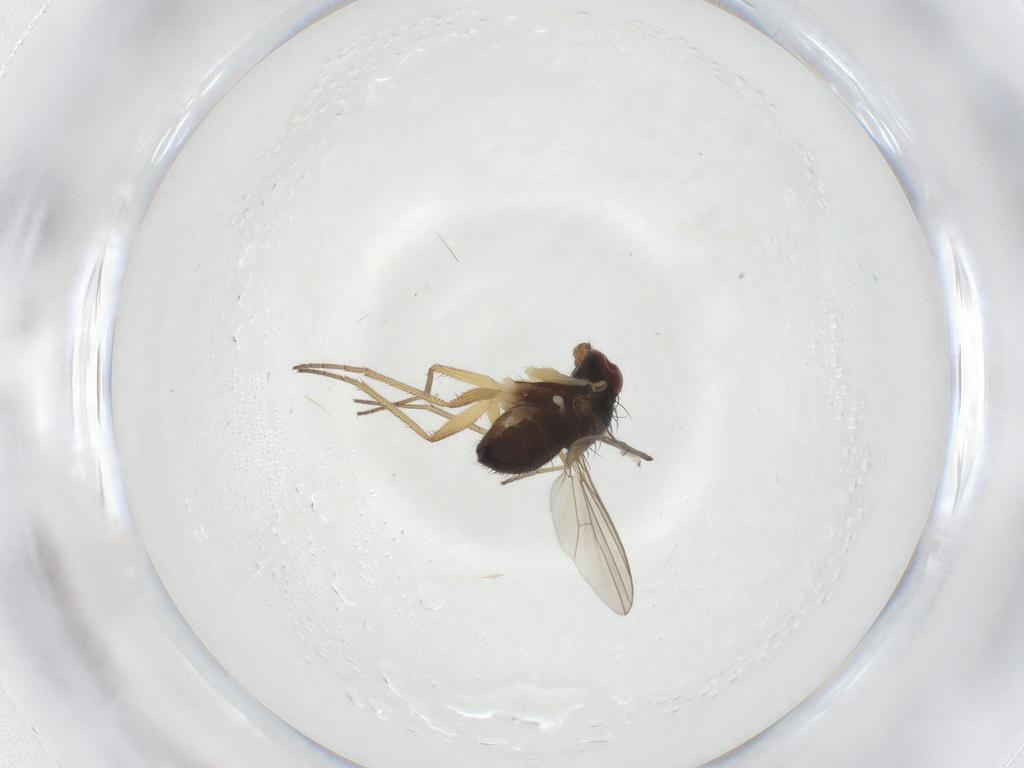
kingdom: Animalia
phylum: Arthropoda
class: Insecta
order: Diptera
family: Dolichopodidae
